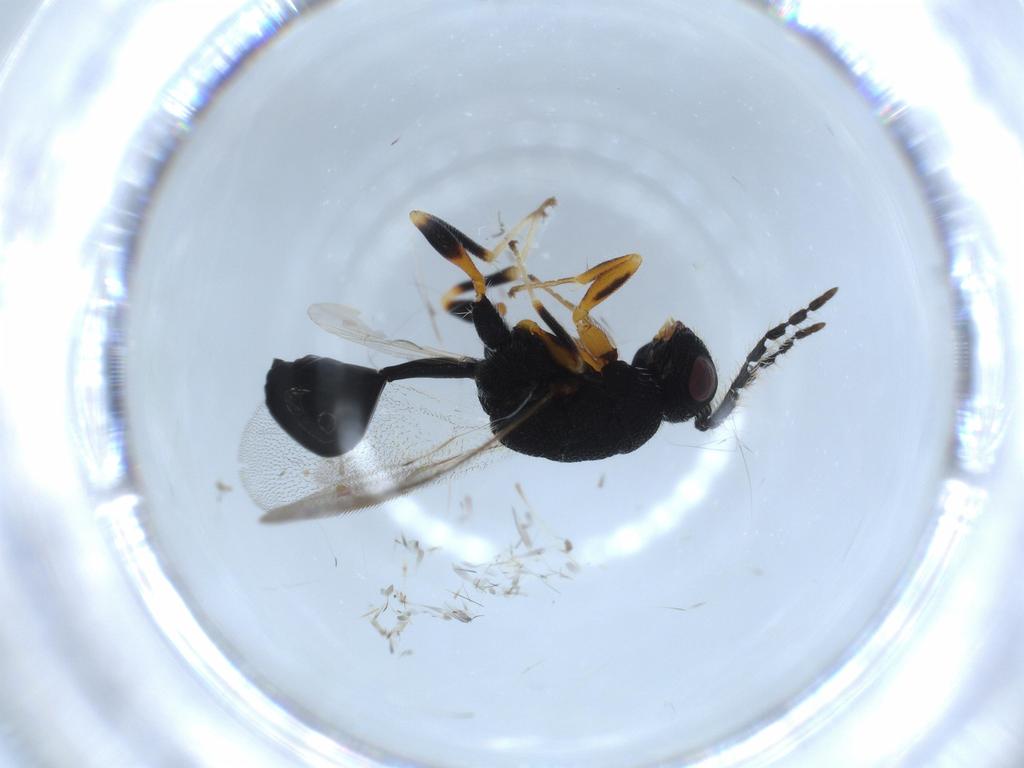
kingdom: Animalia
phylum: Arthropoda
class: Insecta
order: Hymenoptera
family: Eurytomidae
